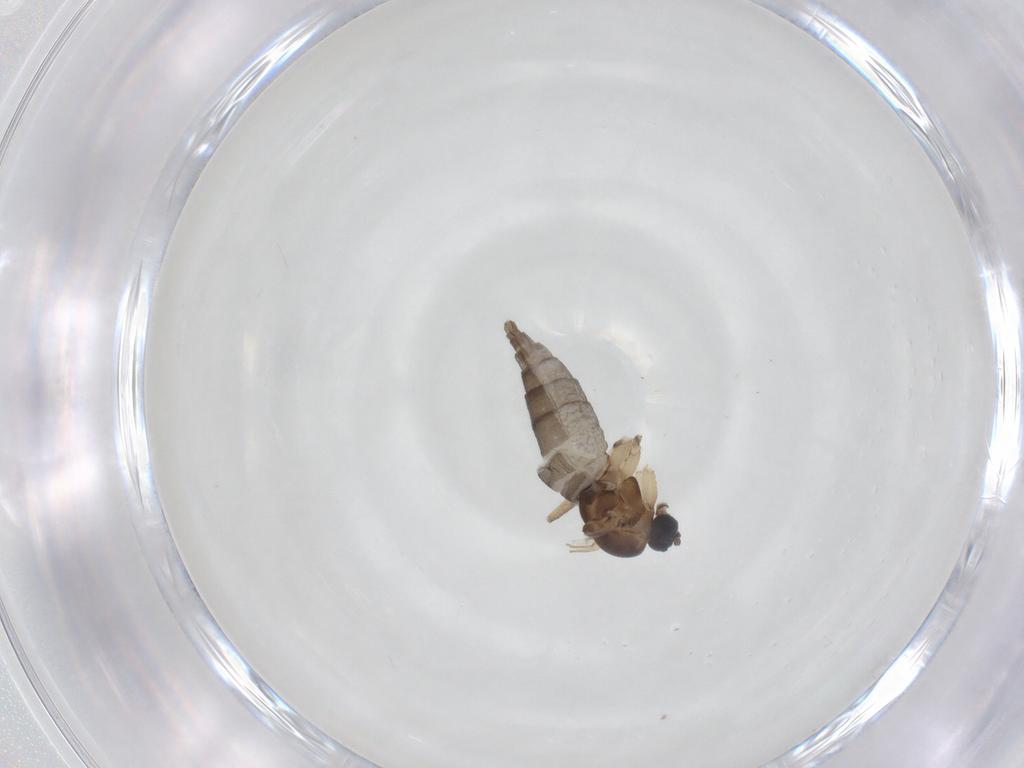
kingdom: Animalia
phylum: Arthropoda
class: Insecta
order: Diptera
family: Sciaridae
